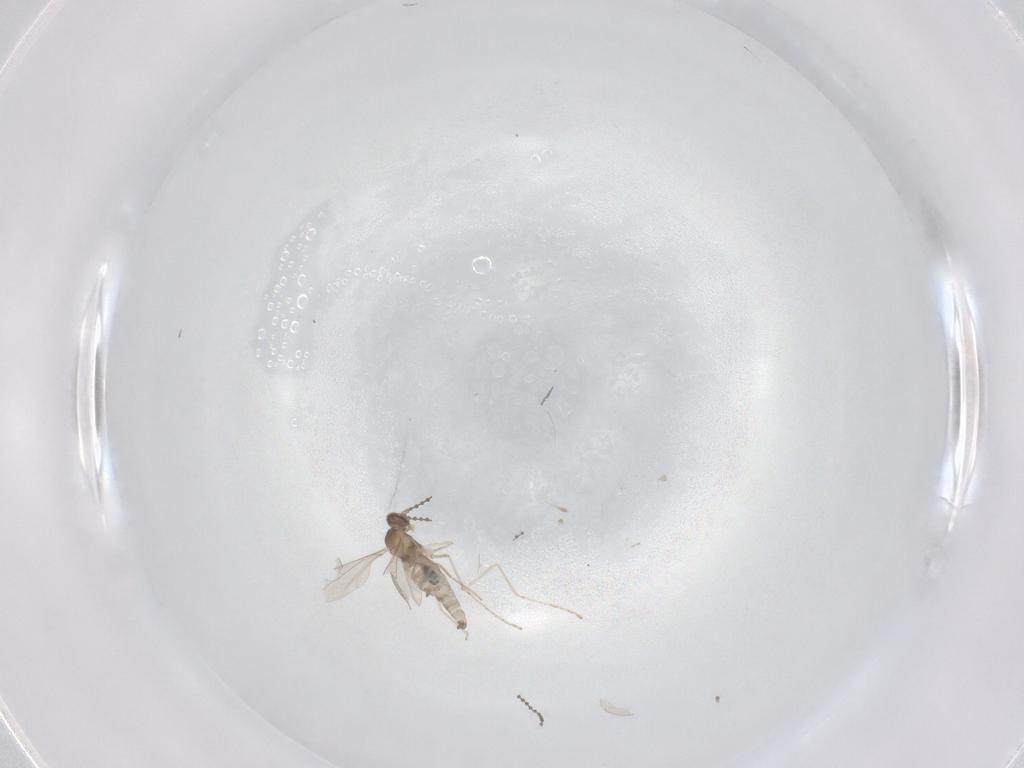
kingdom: Animalia
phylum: Arthropoda
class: Insecta
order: Diptera
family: Cecidomyiidae
